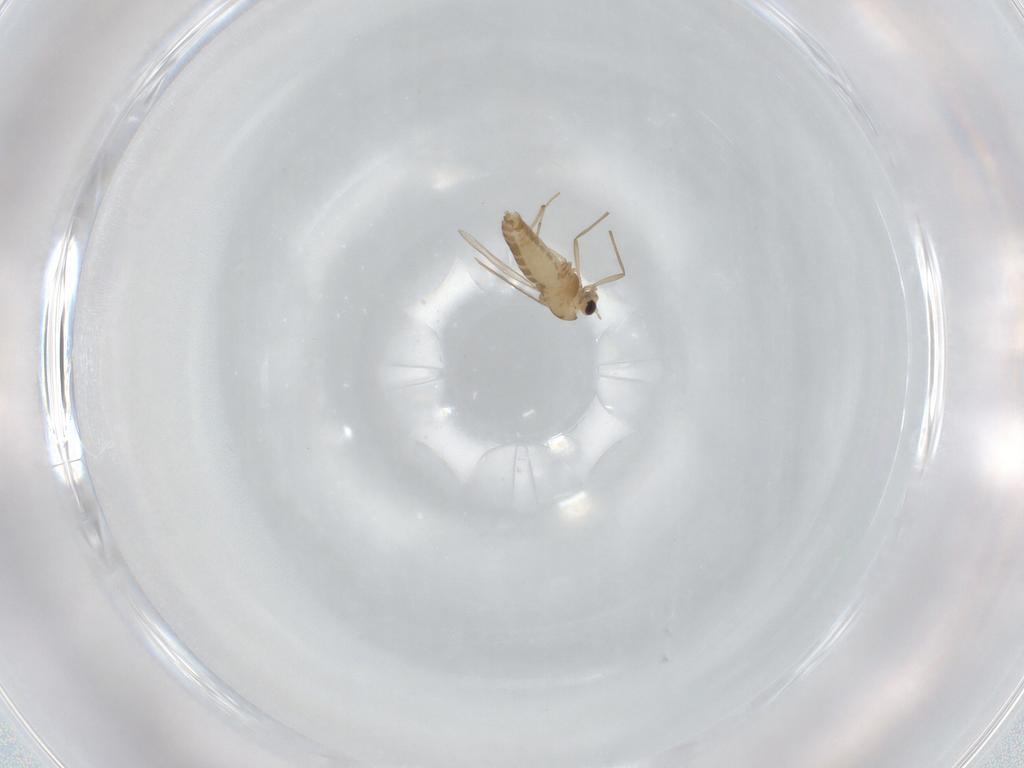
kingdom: Animalia
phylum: Arthropoda
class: Insecta
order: Diptera
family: Chironomidae
